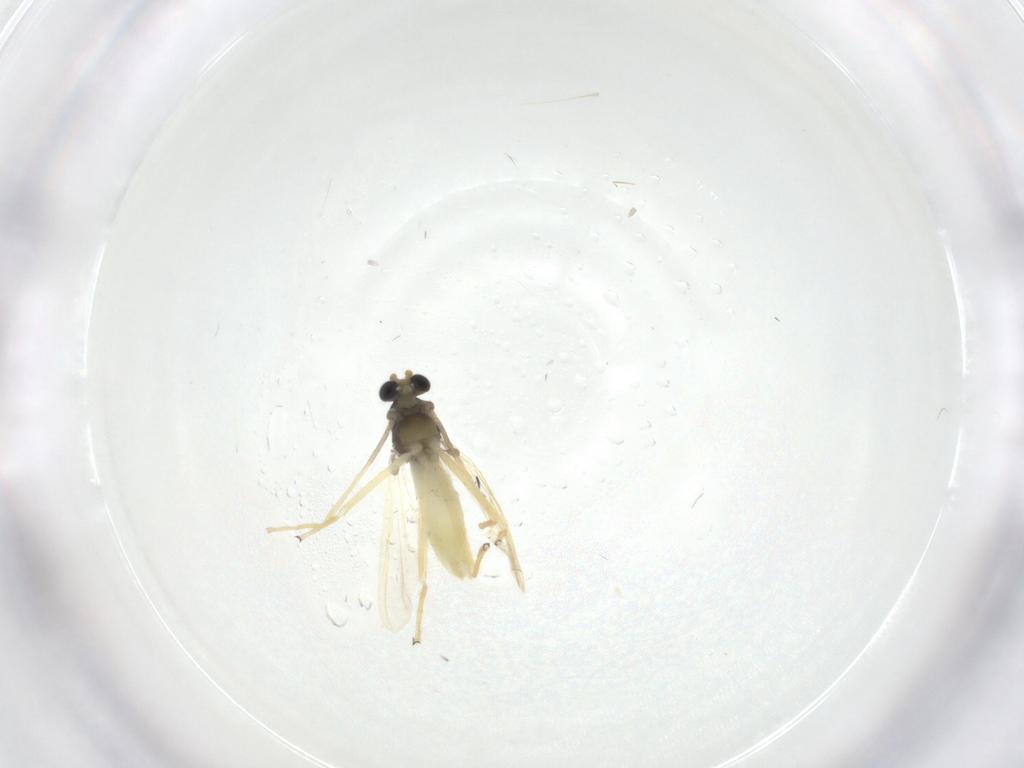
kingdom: Animalia
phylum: Arthropoda
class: Insecta
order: Diptera
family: Chironomidae
